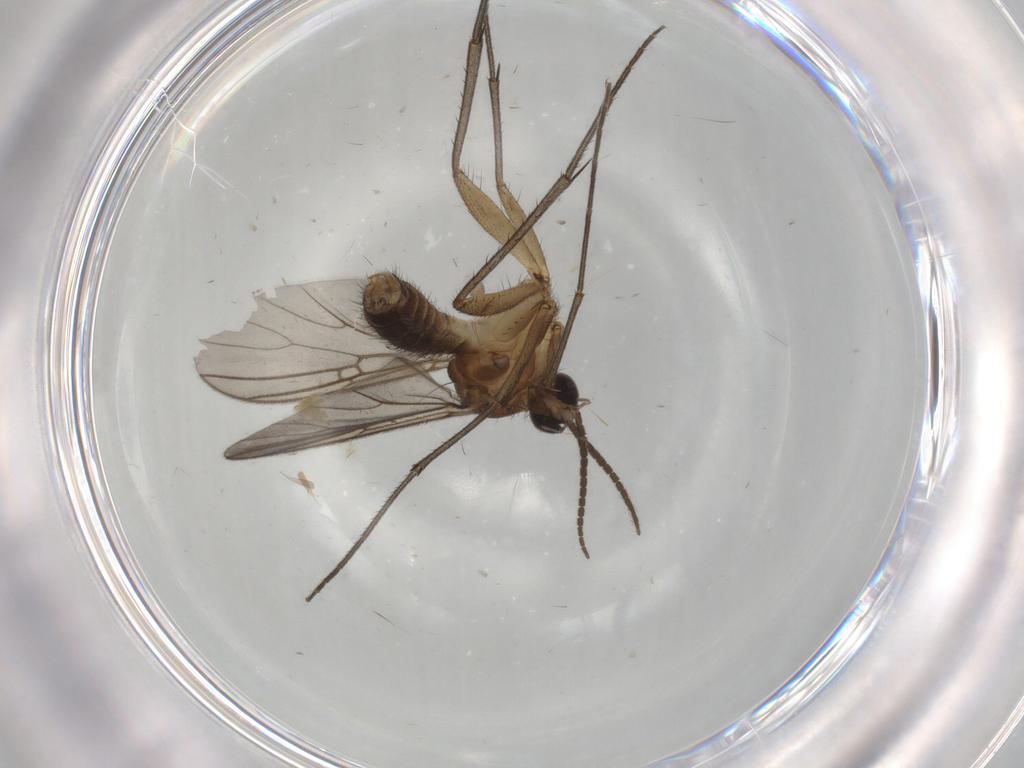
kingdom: Animalia
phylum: Arthropoda
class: Insecta
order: Diptera
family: Chironomidae
